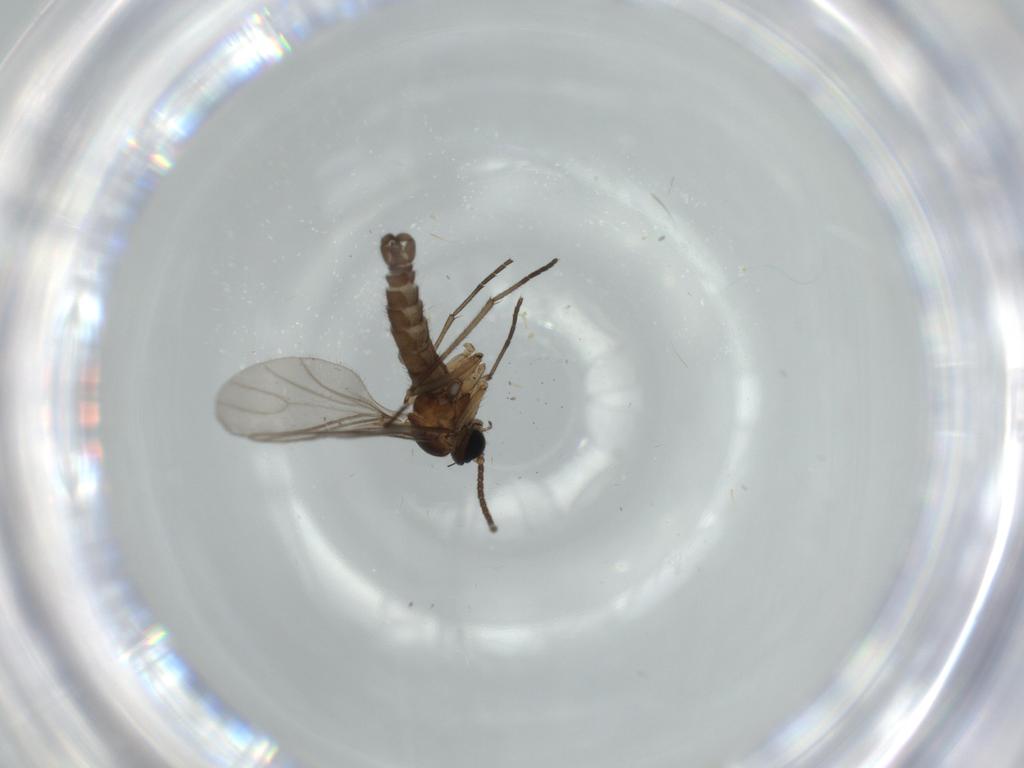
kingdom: Animalia
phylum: Arthropoda
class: Insecta
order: Diptera
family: Sciaridae
